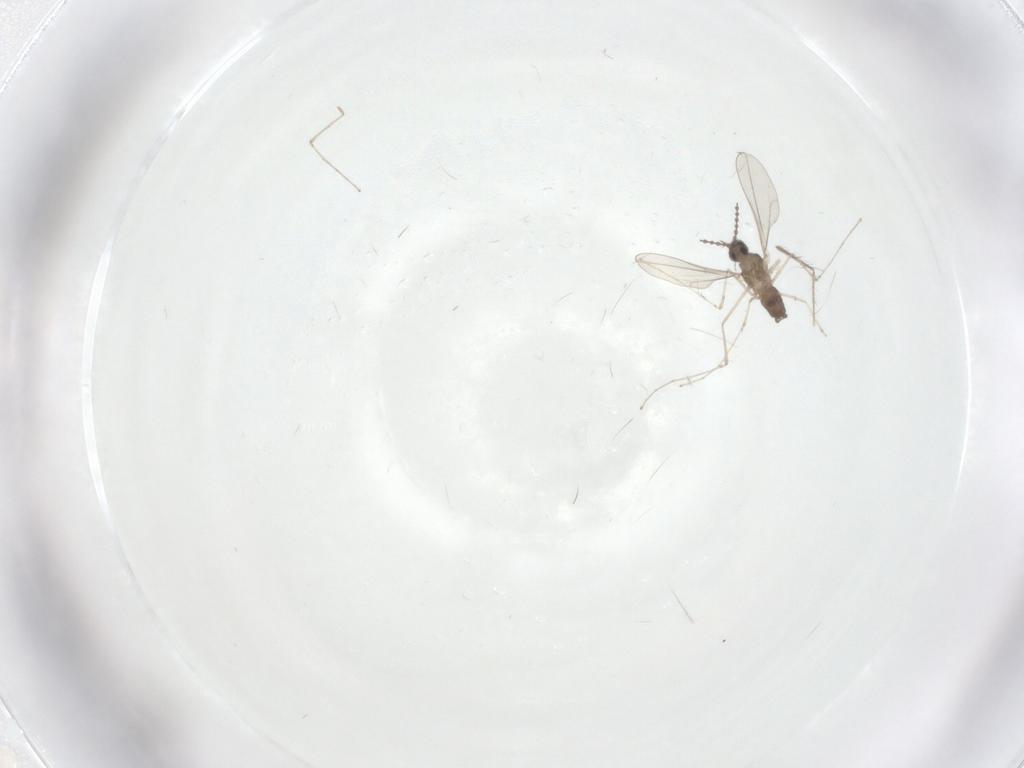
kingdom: Animalia
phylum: Arthropoda
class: Insecta
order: Diptera
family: Cecidomyiidae
